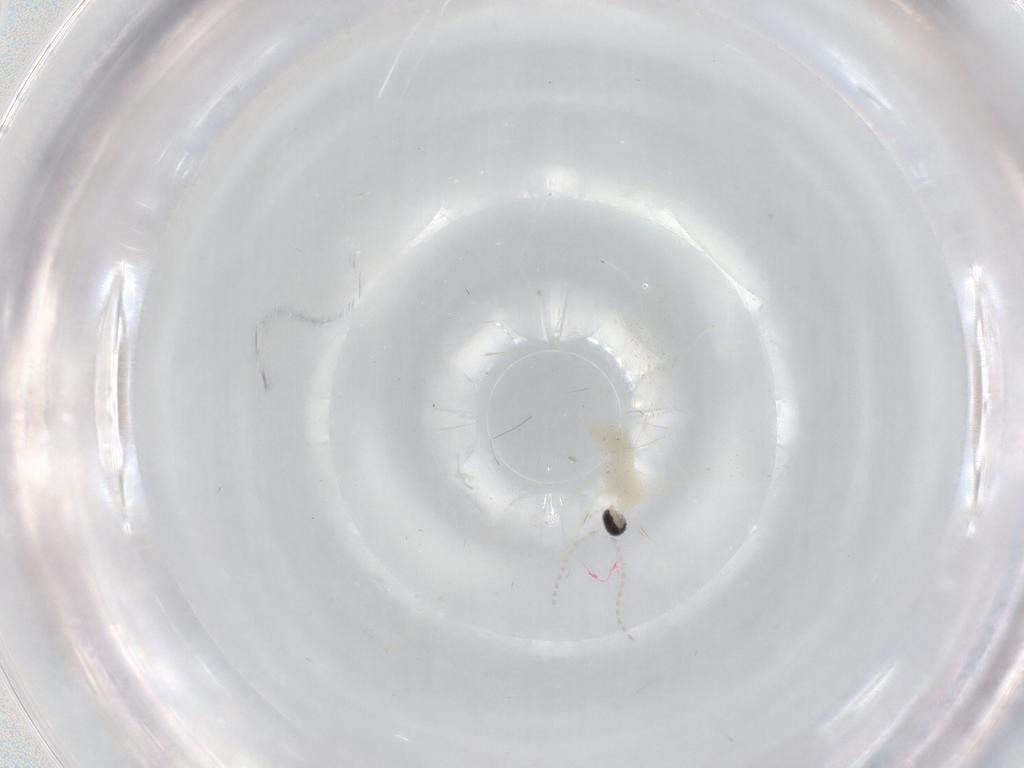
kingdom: Animalia
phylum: Arthropoda
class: Insecta
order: Diptera
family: Cecidomyiidae
